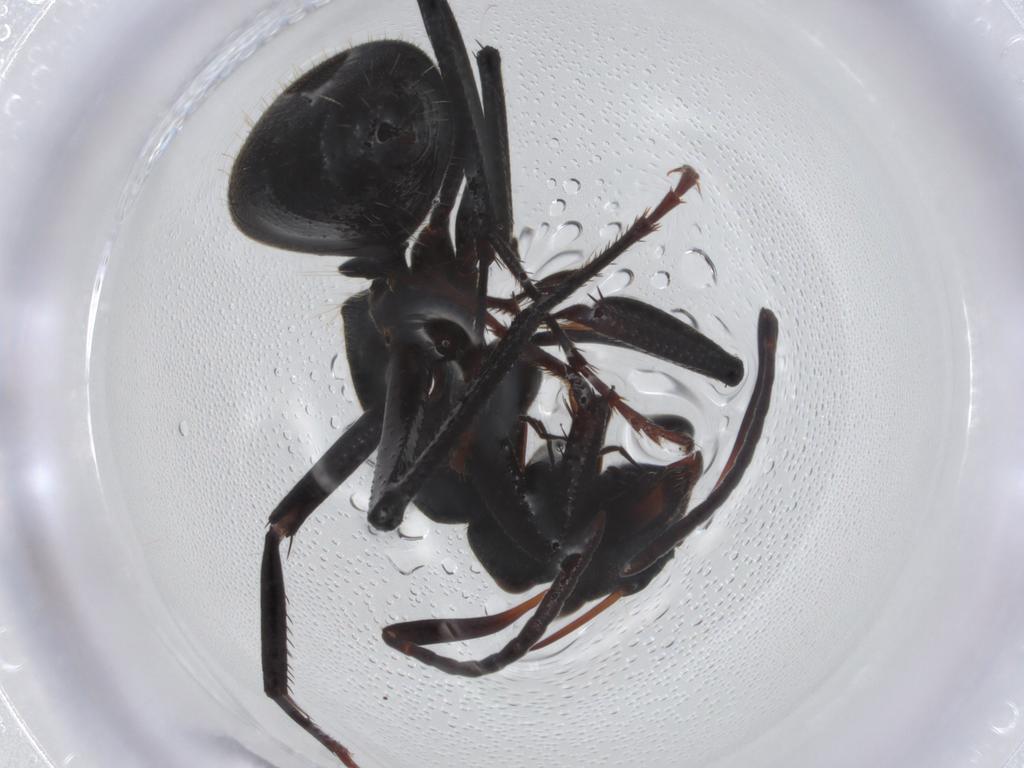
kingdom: Animalia
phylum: Arthropoda
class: Insecta
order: Hymenoptera
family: Formicidae
